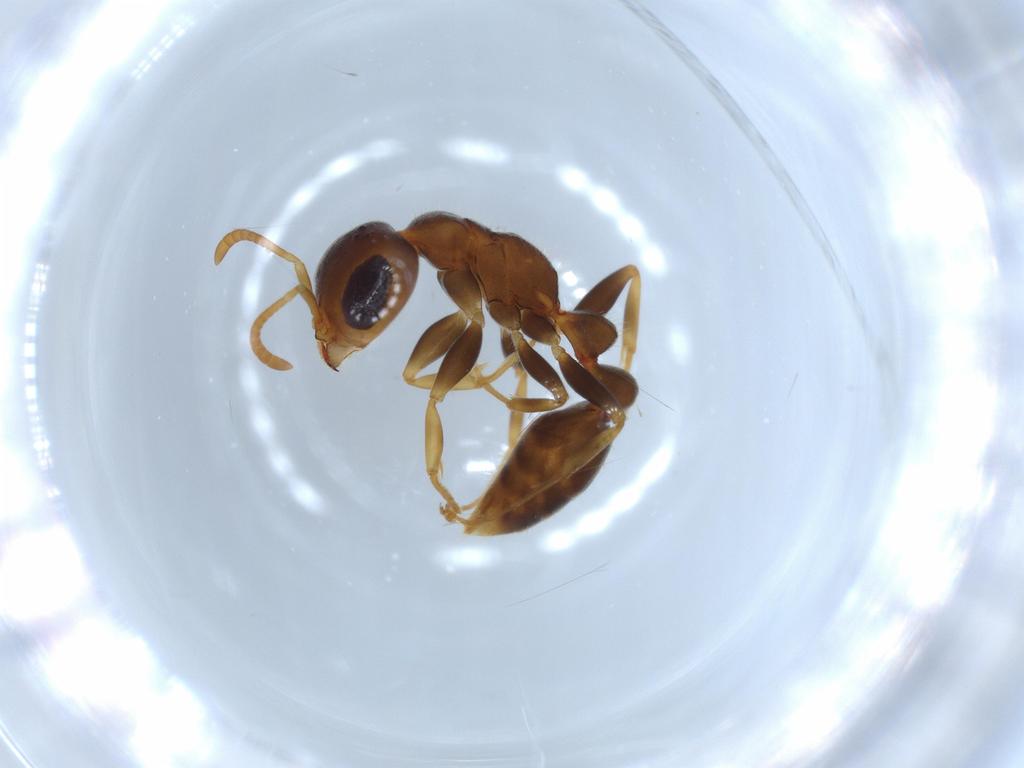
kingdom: Animalia
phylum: Arthropoda
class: Insecta
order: Hymenoptera
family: Formicidae
